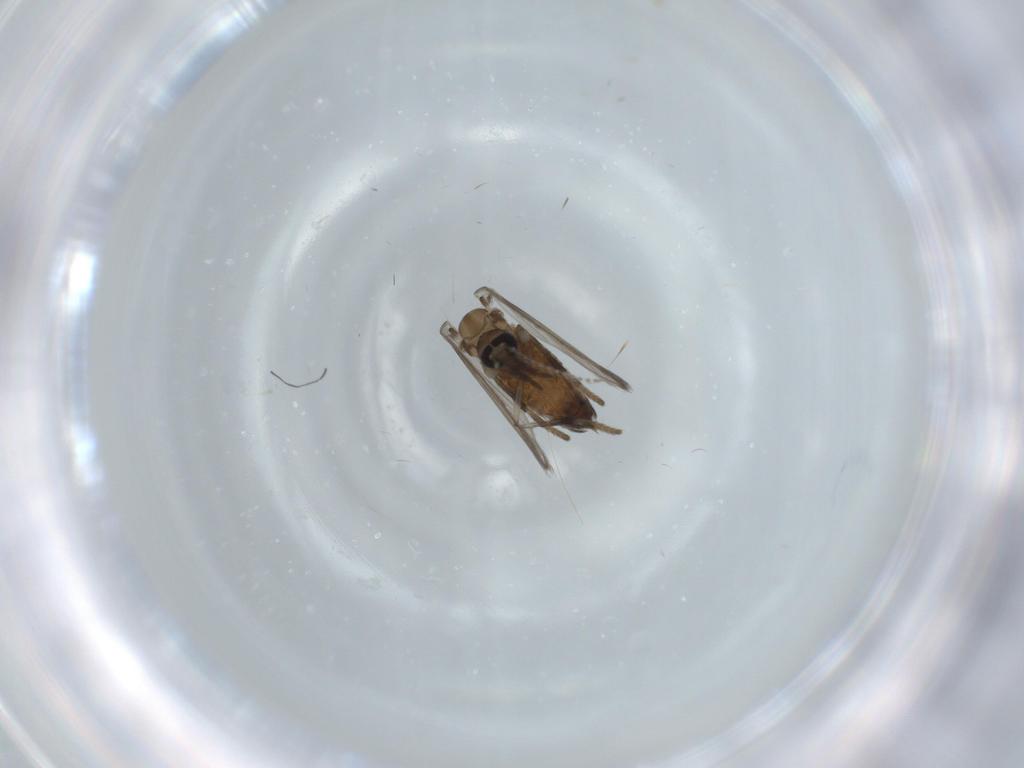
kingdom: Animalia
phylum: Arthropoda
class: Insecta
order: Diptera
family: Psychodidae
